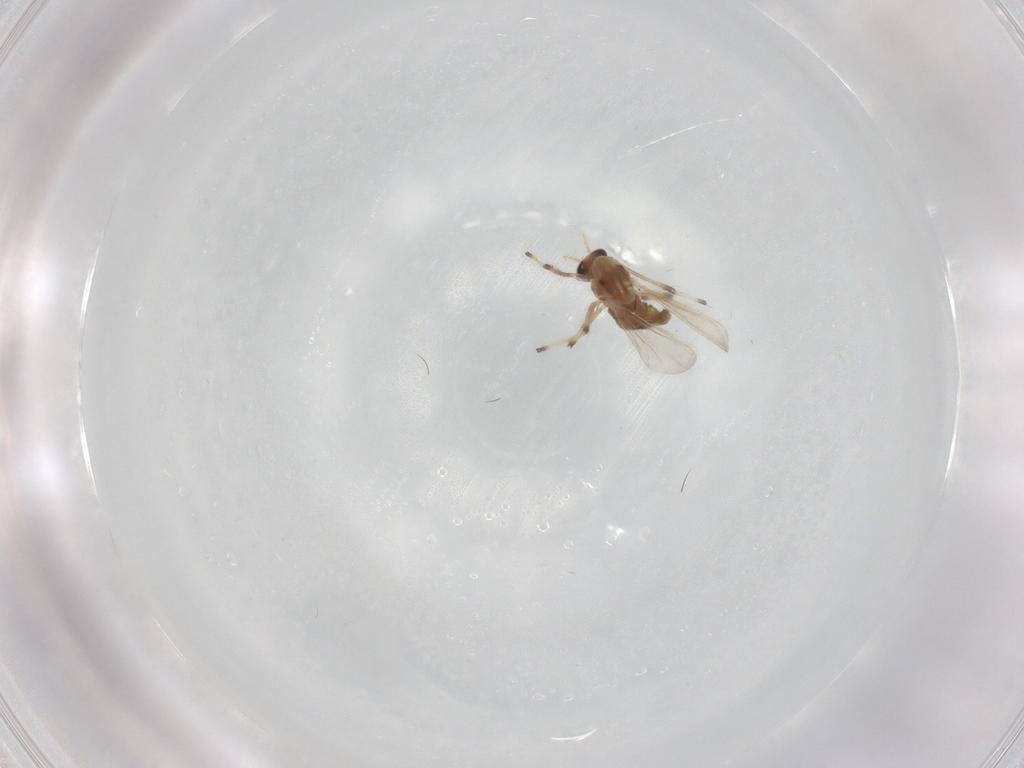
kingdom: Animalia
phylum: Arthropoda
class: Insecta
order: Diptera
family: Chironomidae
